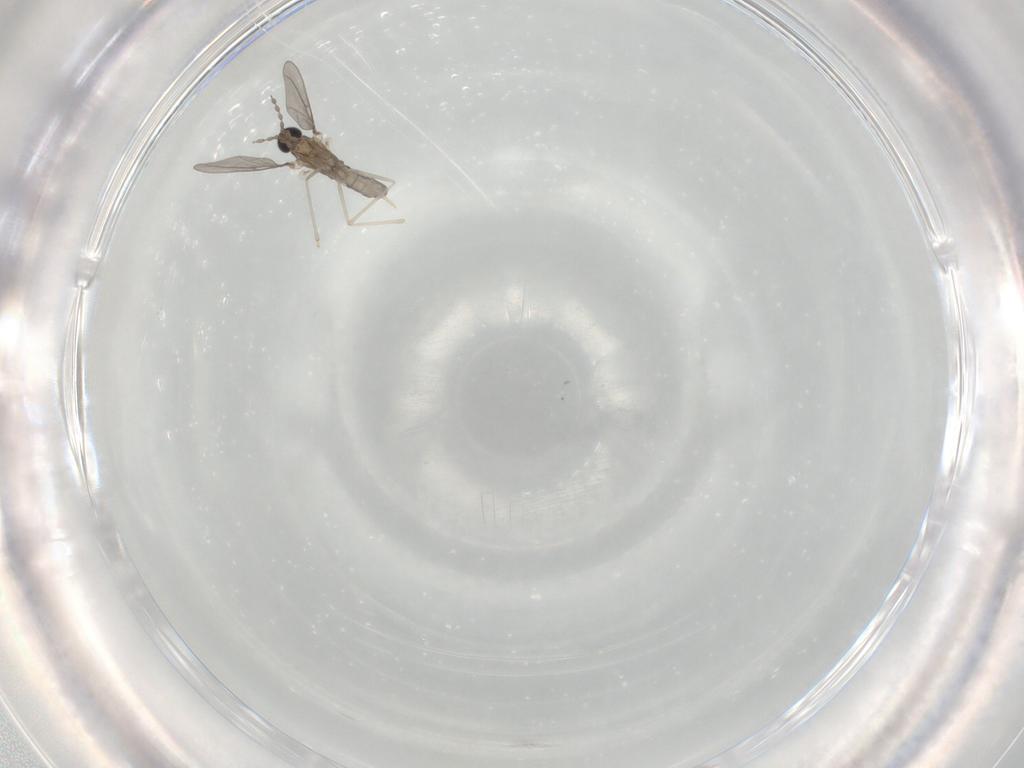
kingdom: Animalia
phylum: Arthropoda
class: Insecta
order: Diptera
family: Cecidomyiidae
